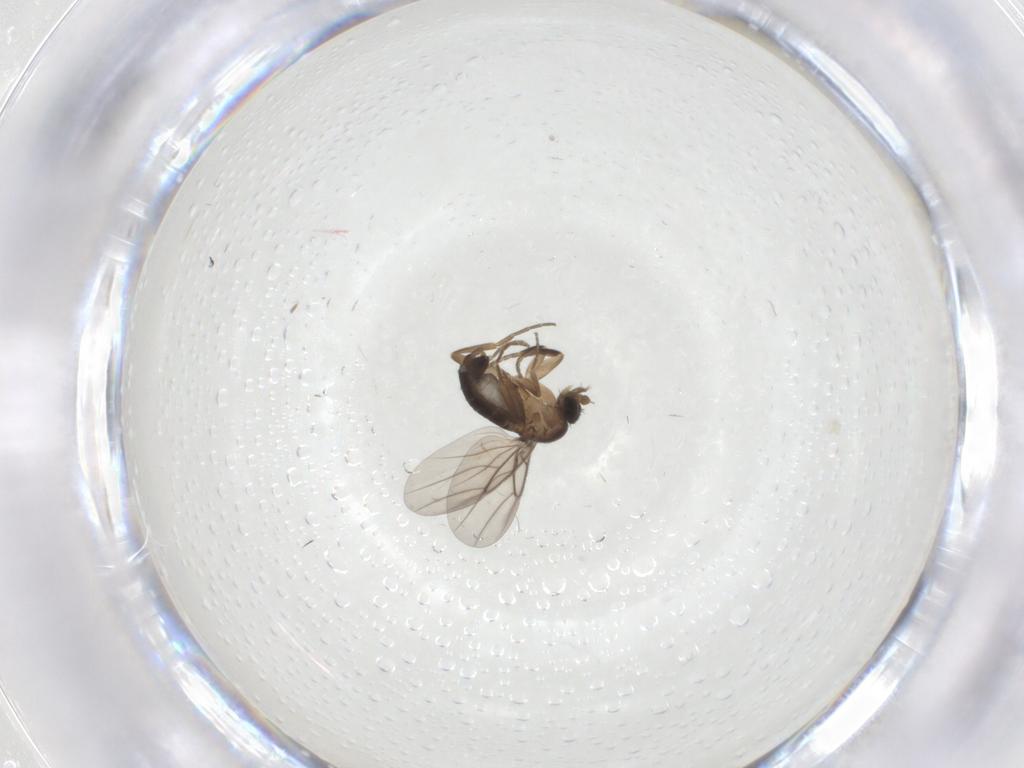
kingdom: Animalia
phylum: Arthropoda
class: Insecta
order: Diptera
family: Phoridae
